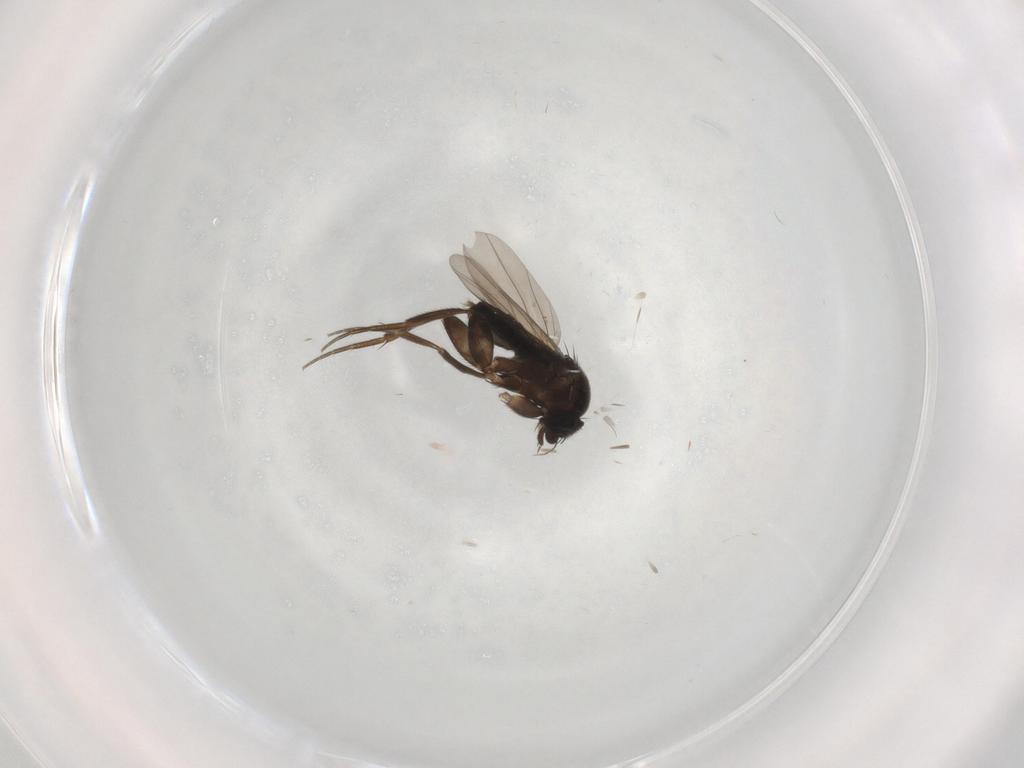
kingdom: Animalia
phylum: Arthropoda
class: Insecta
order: Diptera
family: Phoridae
